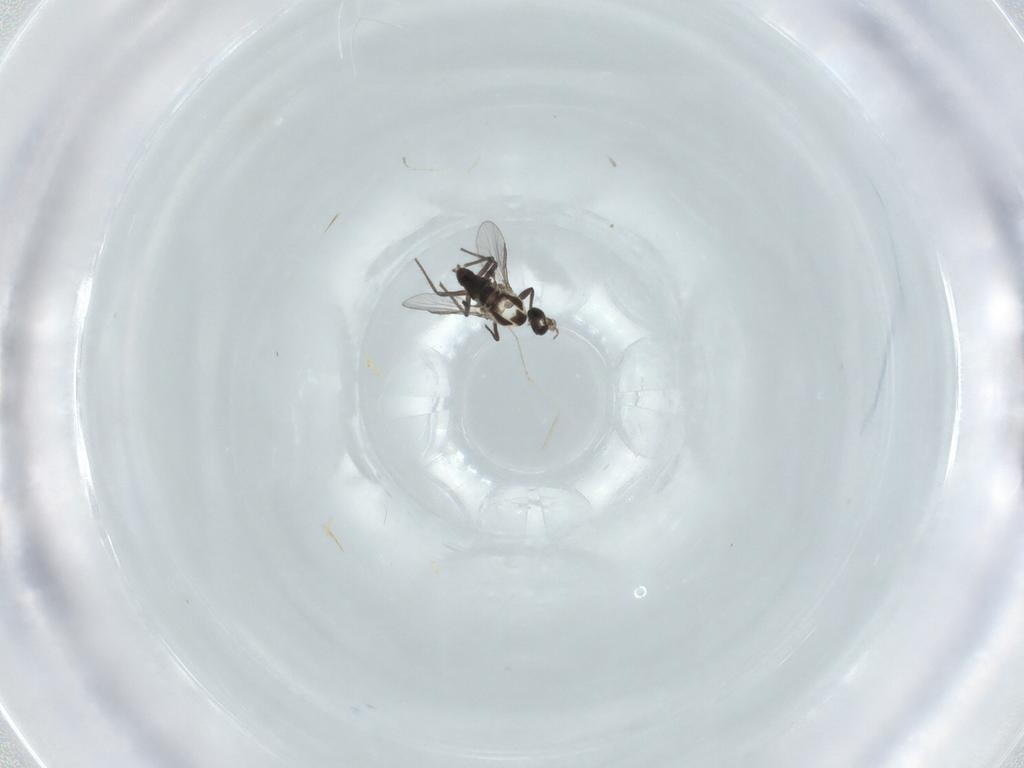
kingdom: Animalia
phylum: Arthropoda
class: Insecta
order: Diptera
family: Chironomidae
